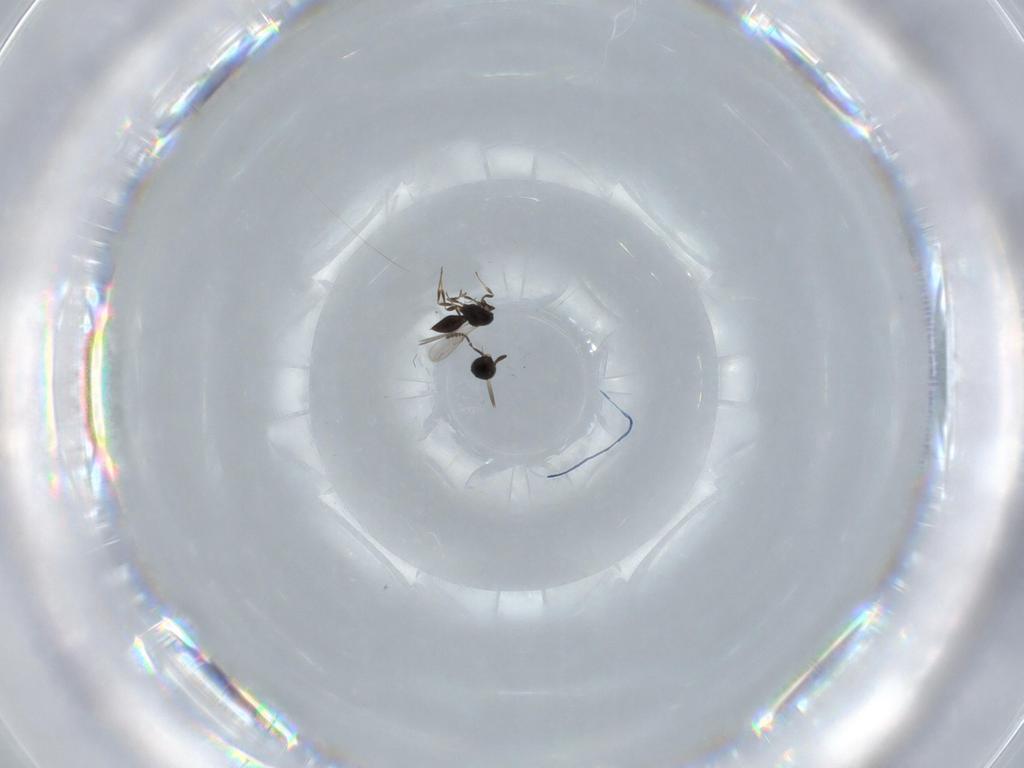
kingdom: Animalia
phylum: Arthropoda
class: Insecta
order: Hymenoptera
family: Scelionidae
